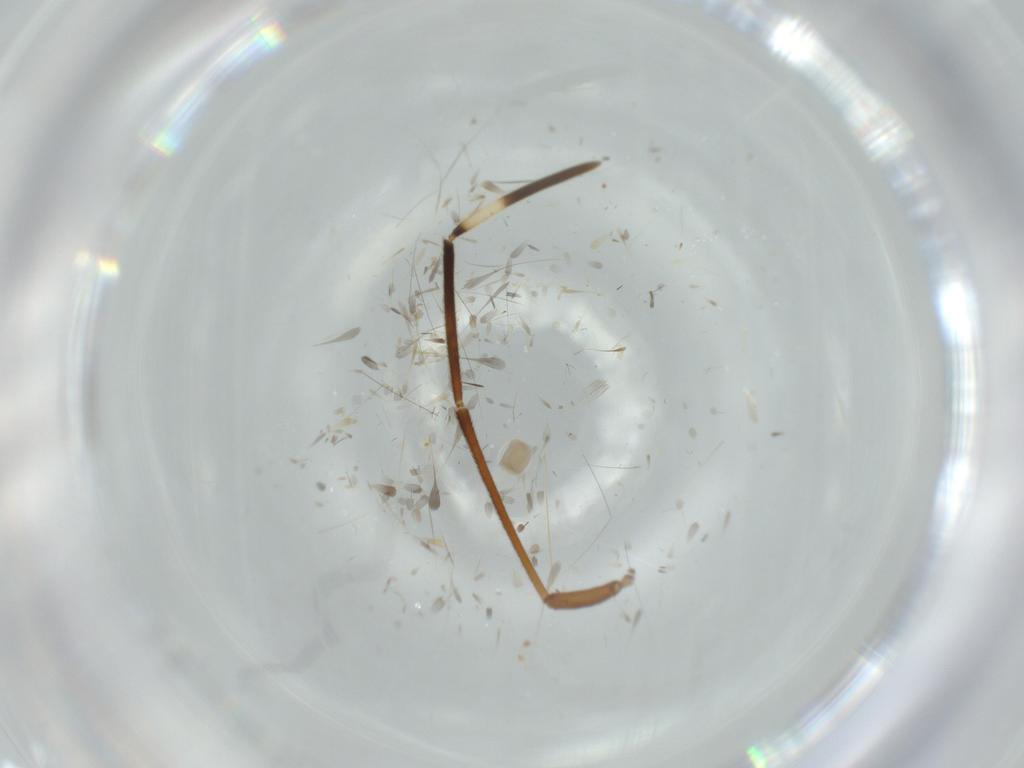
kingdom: Animalia
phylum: Arthropoda
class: Insecta
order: Hemiptera
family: Rhyparochromidae
